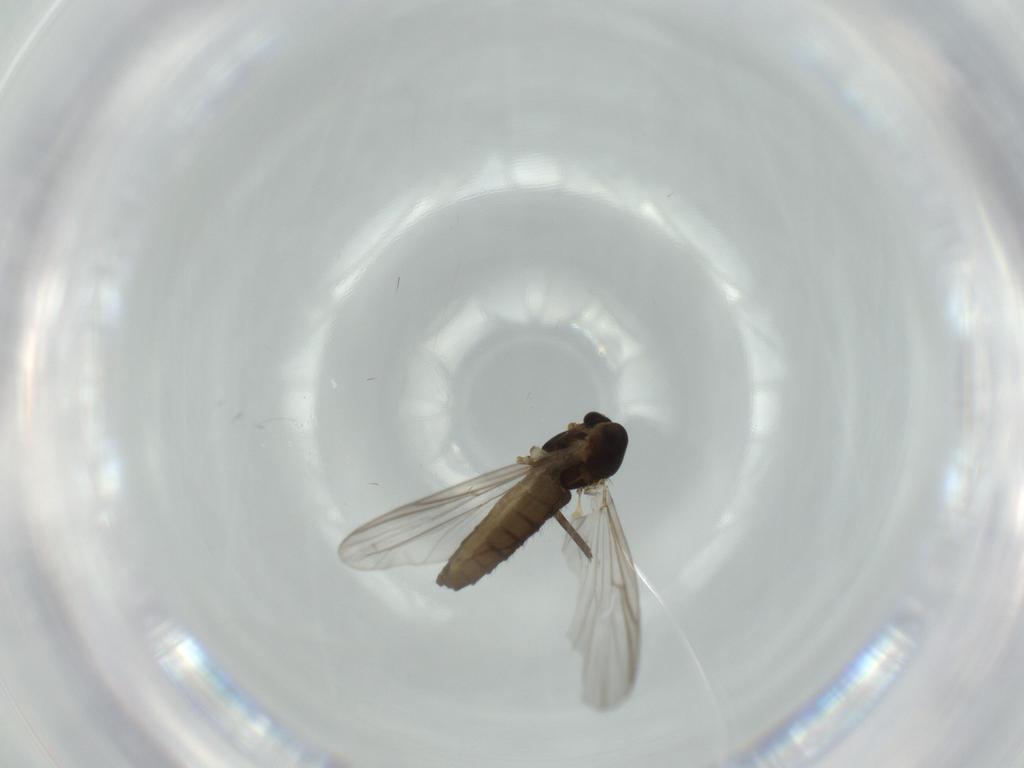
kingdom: Animalia
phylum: Arthropoda
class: Insecta
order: Diptera
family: Chironomidae
